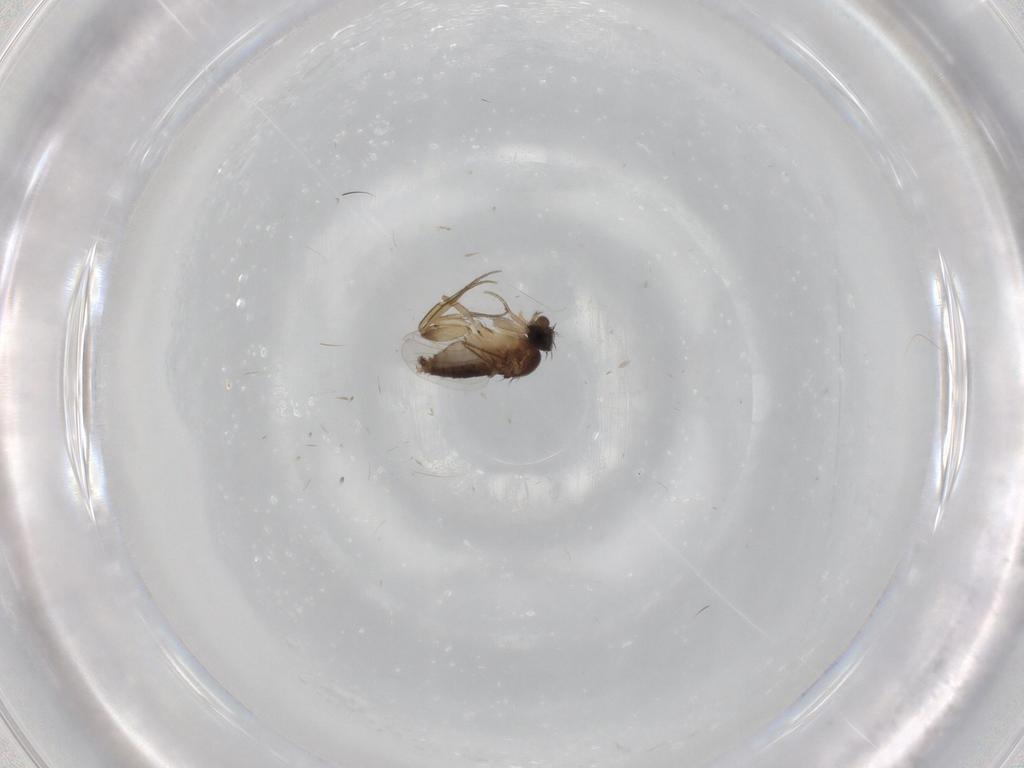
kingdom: Animalia
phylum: Arthropoda
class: Insecta
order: Diptera
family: Phoridae
